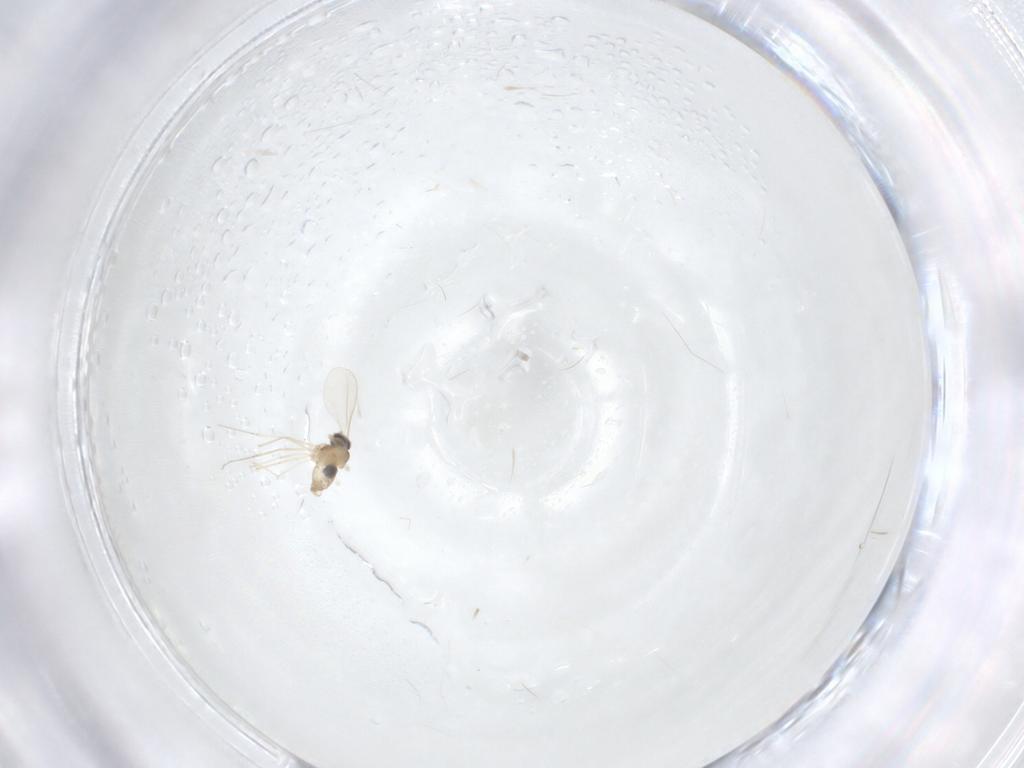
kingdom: Animalia
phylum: Arthropoda
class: Insecta
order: Diptera
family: Cecidomyiidae
